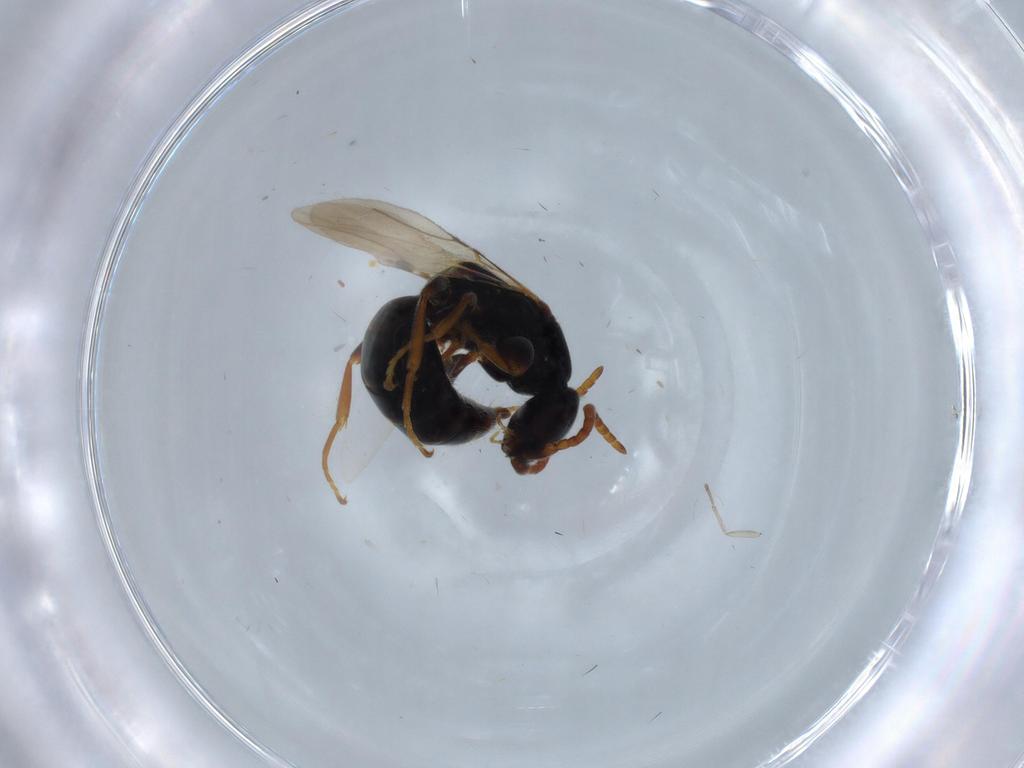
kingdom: Animalia
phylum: Arthropoda
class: Insecta
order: Hymenoptera
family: Bethylidae
